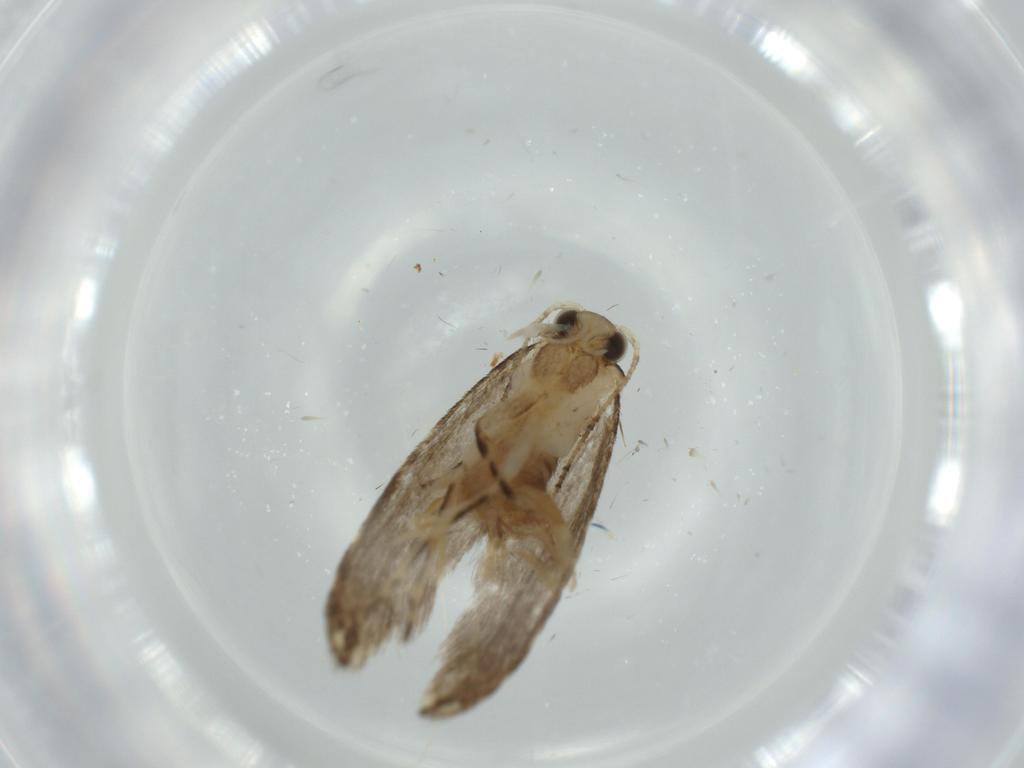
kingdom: Animalia
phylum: Arthropoda
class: Insecta
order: Lepidoptera
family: Tineidae
